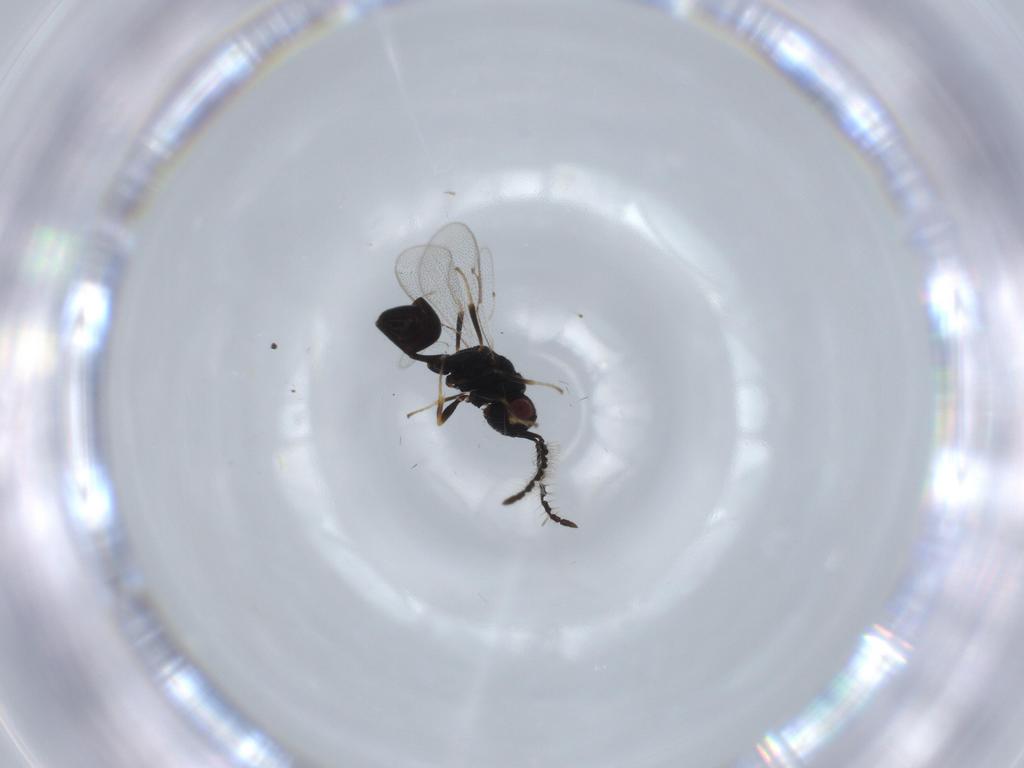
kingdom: Animalia
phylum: Arthropoda
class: Insecta
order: Hymenoptera
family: Eurytomidae
